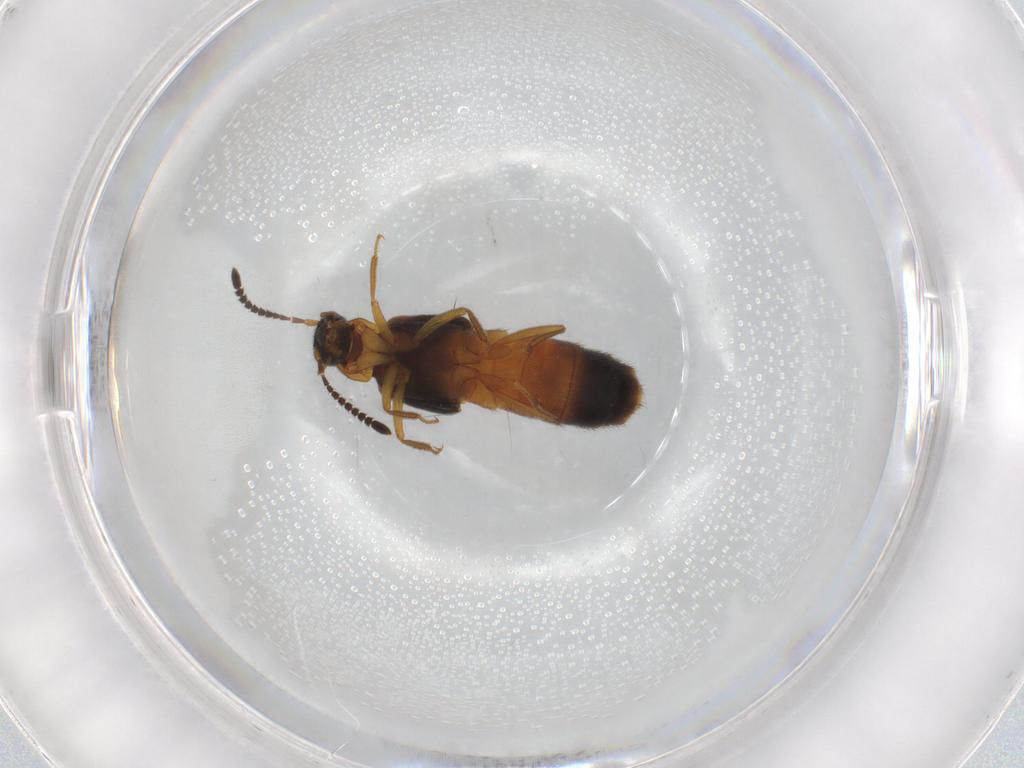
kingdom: Animalia
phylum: Arthropoda
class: Insecta
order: Coleoptera
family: Staphylinidae
